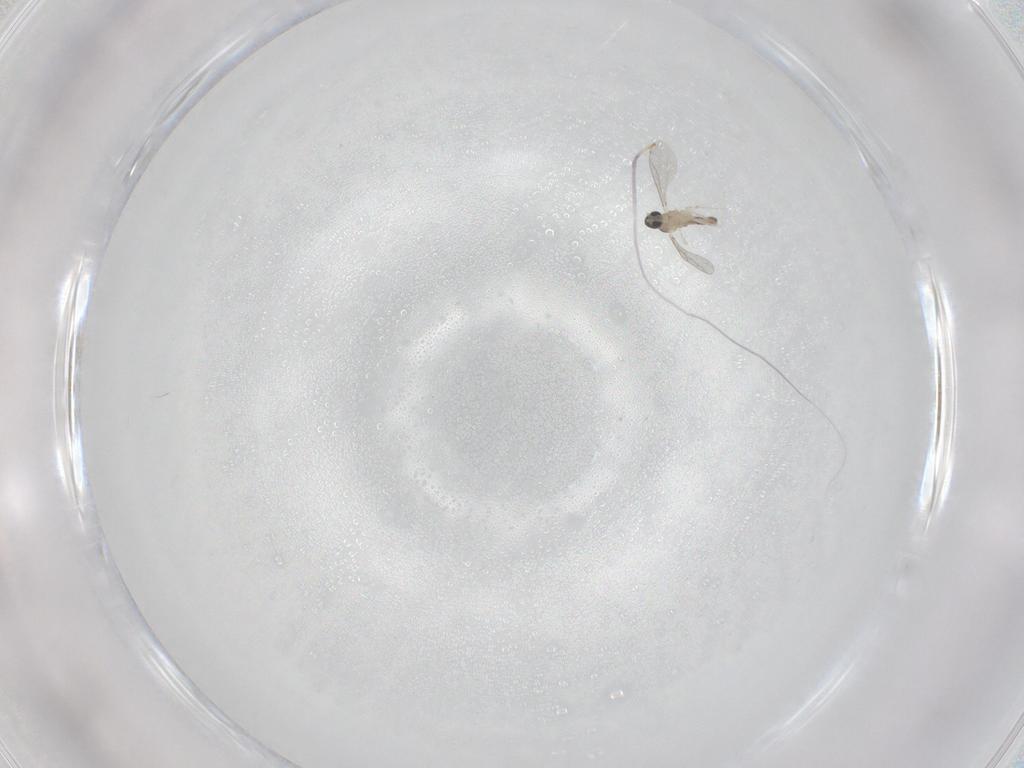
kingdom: Animalia
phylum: Arthropoda
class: Insecta
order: Diptera
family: Cecidomyiidae
